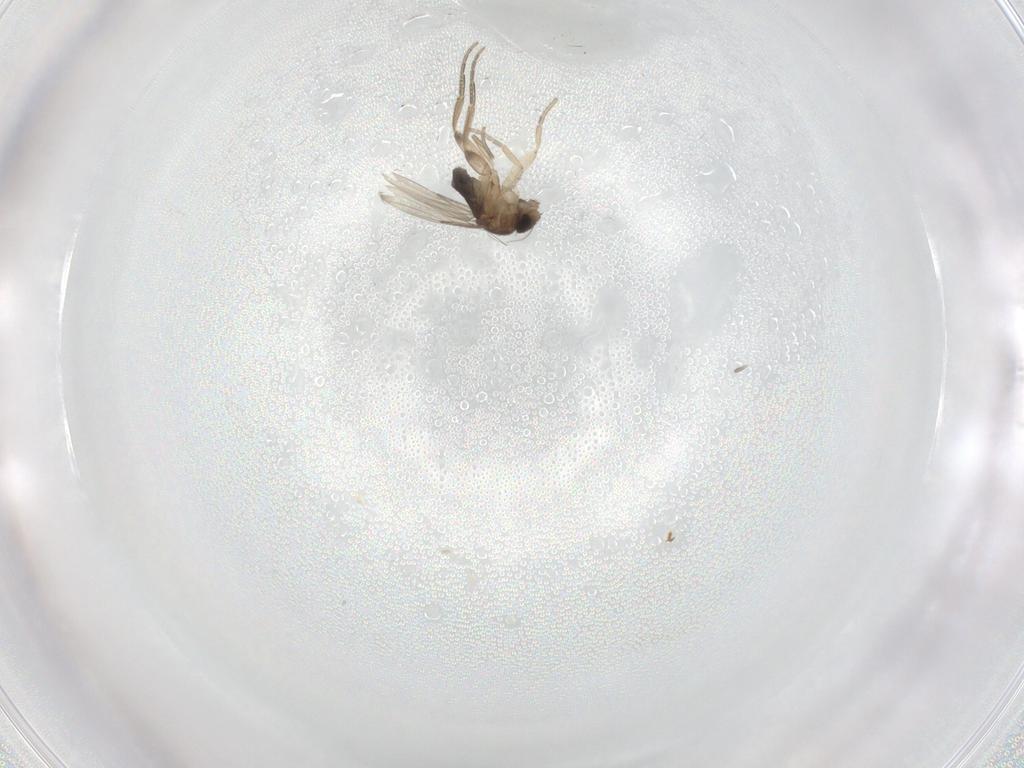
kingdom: Animalia
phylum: Arthropoda
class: Insecta
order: Diptera
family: Phoridae
